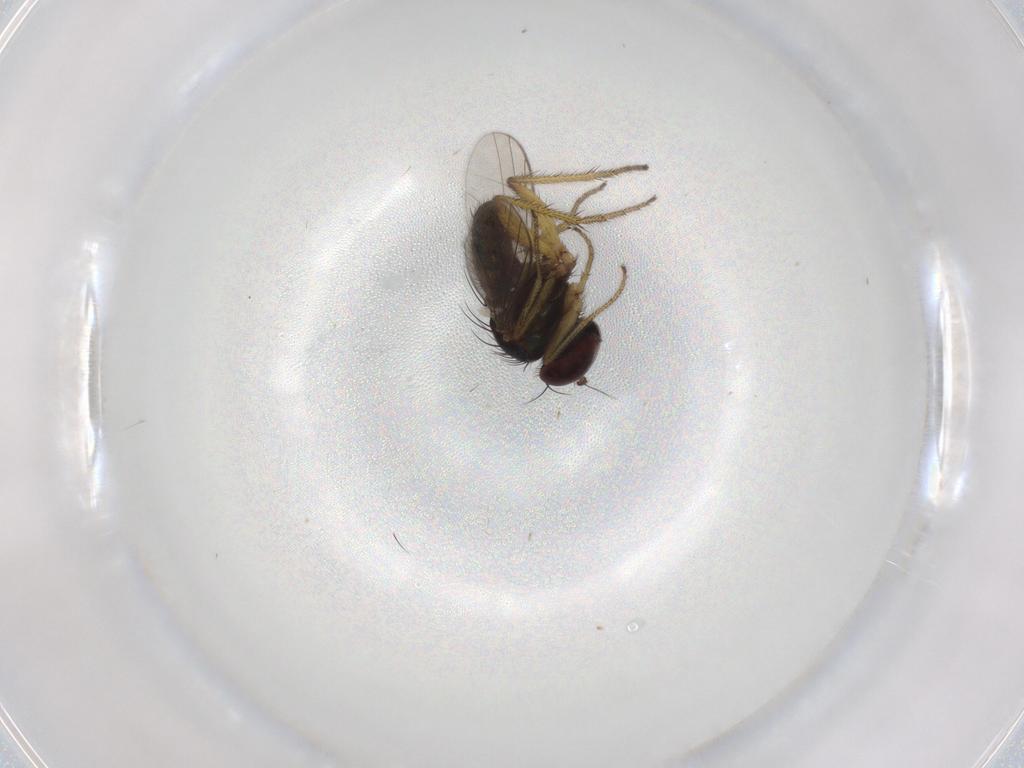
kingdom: Animalia
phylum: Arthropoda
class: Insecta
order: Diptera
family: Dolichopodidae
